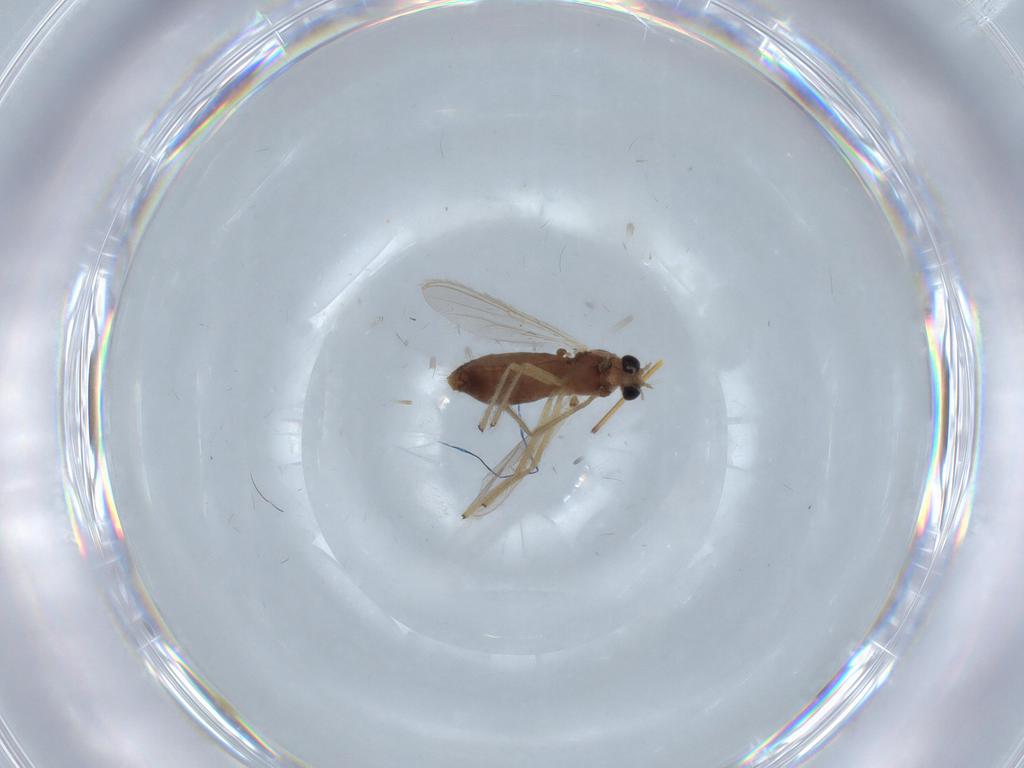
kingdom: Animalia
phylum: Arthropoda
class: Insecta
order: Diptera
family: Chironomidae
